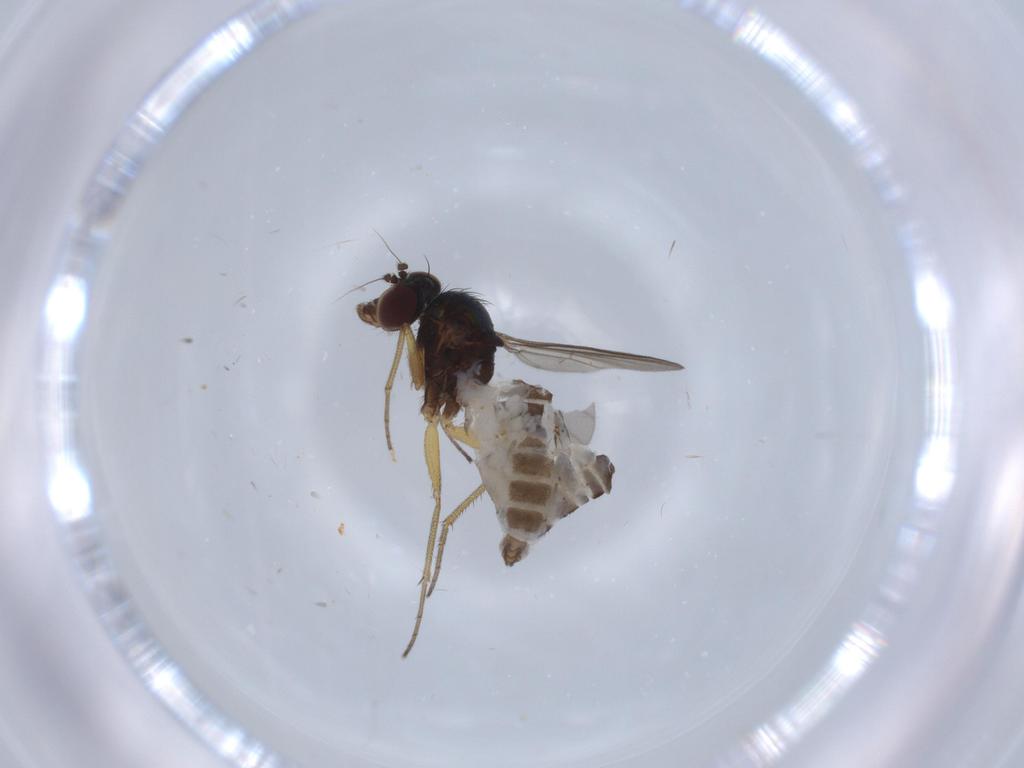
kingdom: Animalia
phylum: Arthropoda
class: Insecta
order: Diptera
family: Dolichopodidae
